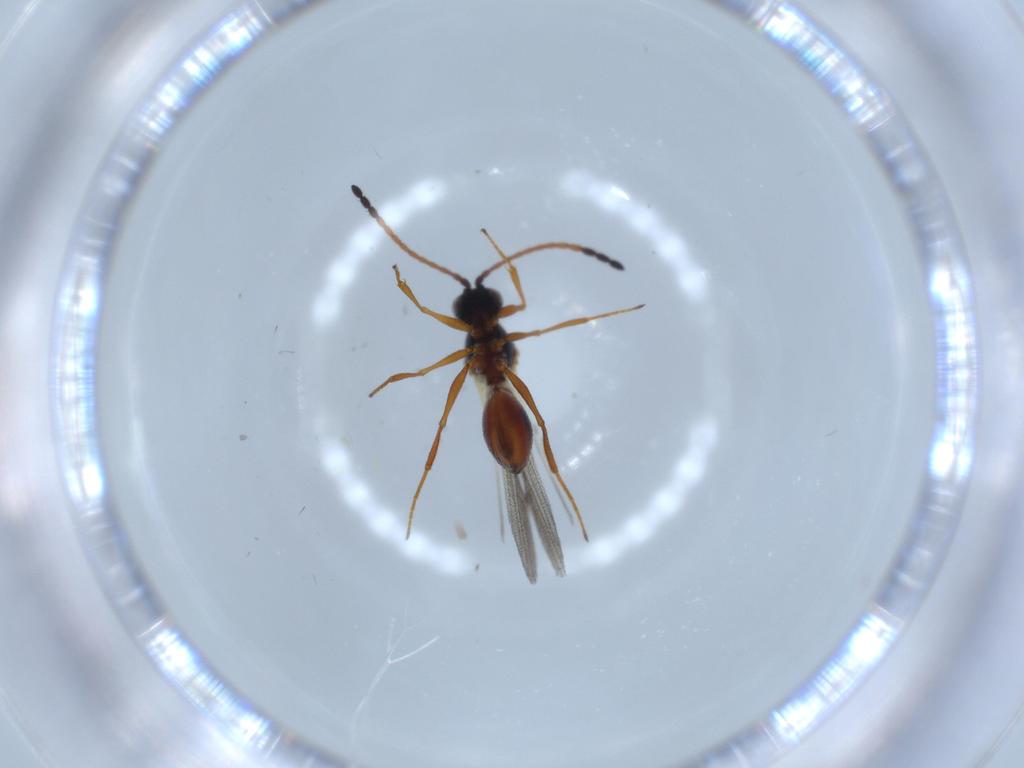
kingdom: Animalia
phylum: Arthropoda
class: Insecta
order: Hymenoptera
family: Figitidae
